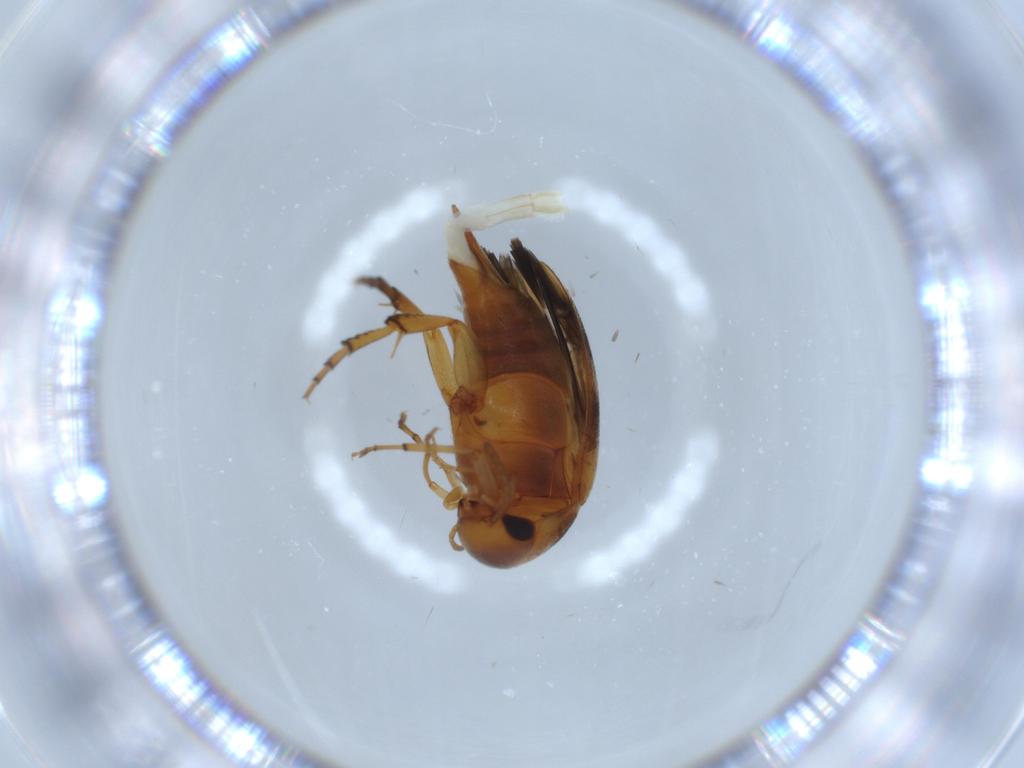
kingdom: Animalia
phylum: Arthropoda
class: Insecta
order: Coleoptera
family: Mordellidae
